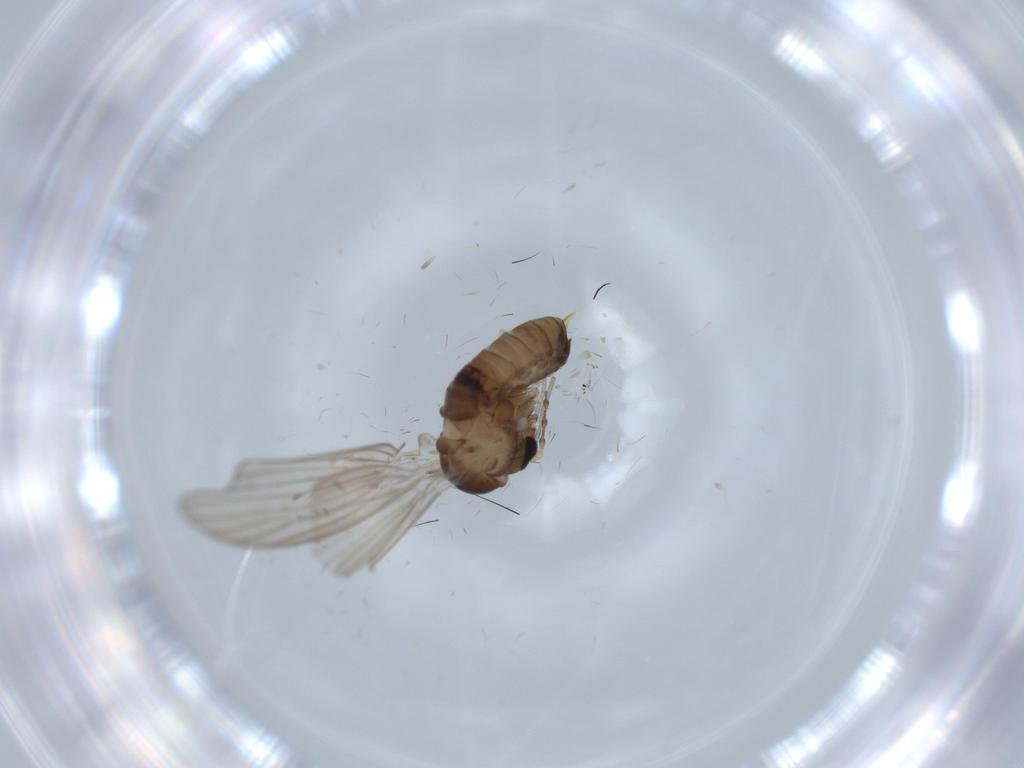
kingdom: Animalia
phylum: Arthropoda
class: Insecta
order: Diptera
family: Psychodidae
